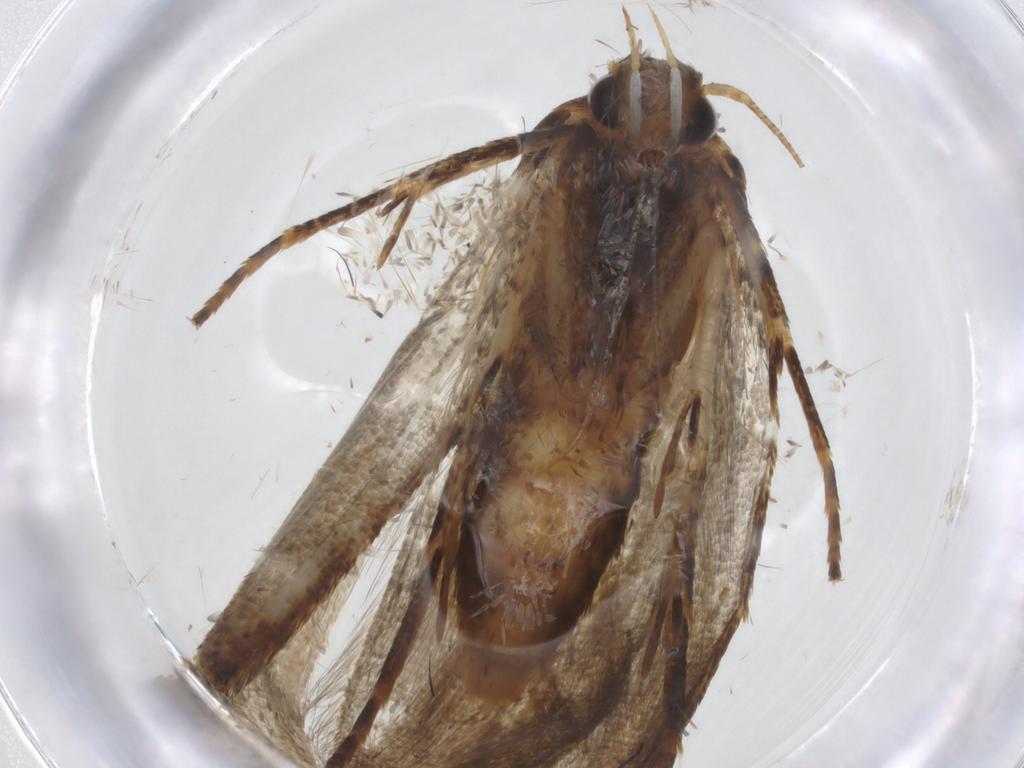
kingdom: Animalia
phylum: Arthropoda
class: Insecta
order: Lepidoptera
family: Blastobasidae
